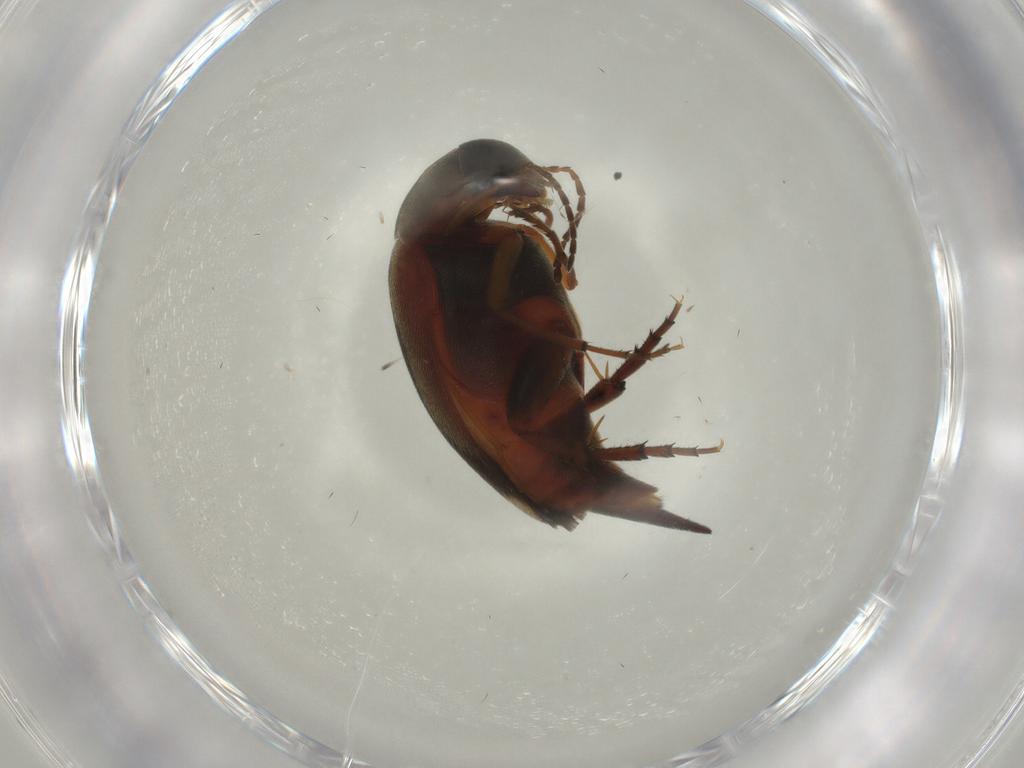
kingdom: Animalia
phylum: Arthropoda
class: Insecta
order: Coleoptera
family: Mordellidae
